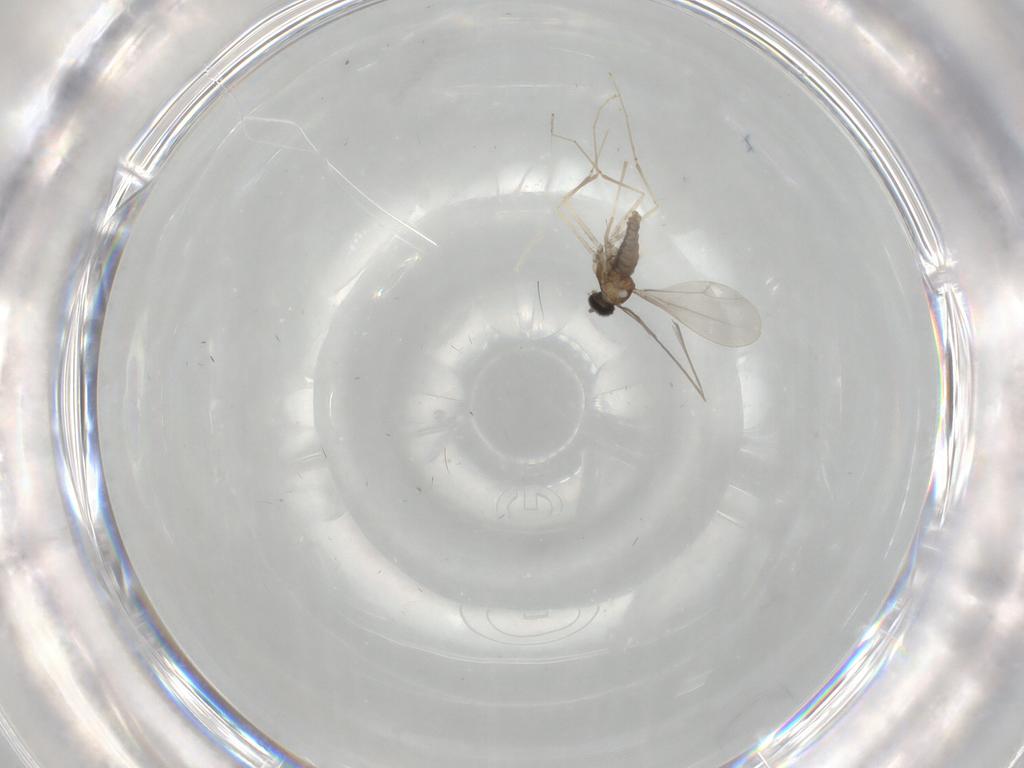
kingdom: Animalia
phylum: Arthropoda
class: Insecta
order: Diptera
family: Cecidomyiidae
